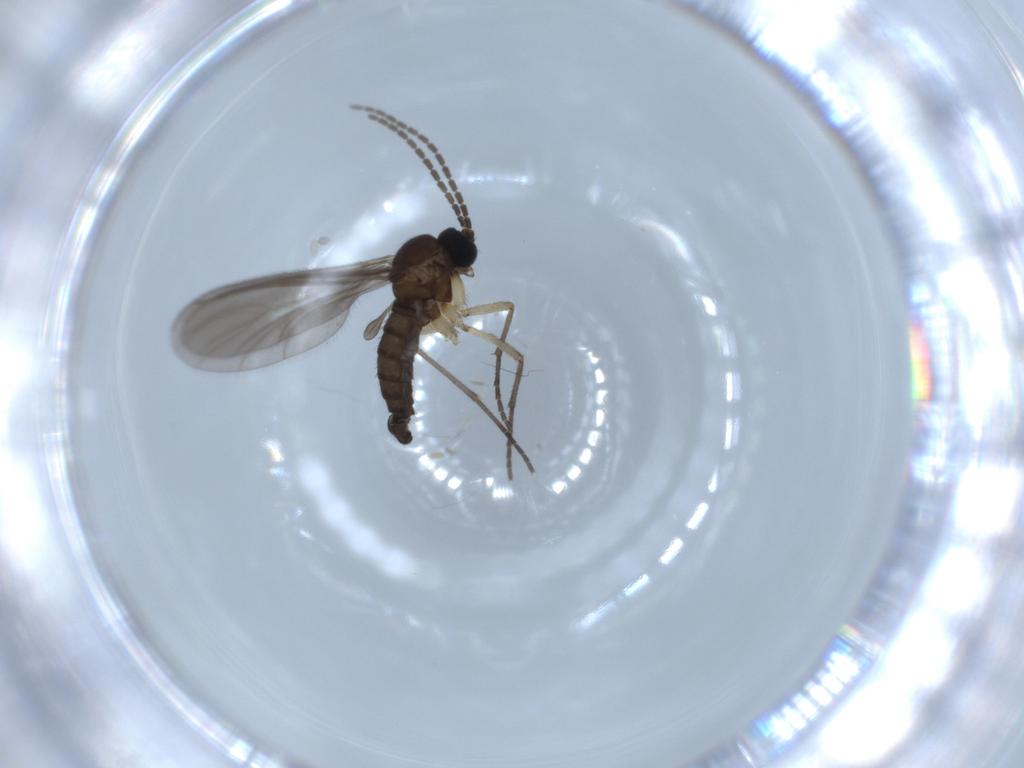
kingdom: Animalia
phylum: Arthropoda
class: Insecta
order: Diptera
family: Sciaridae
